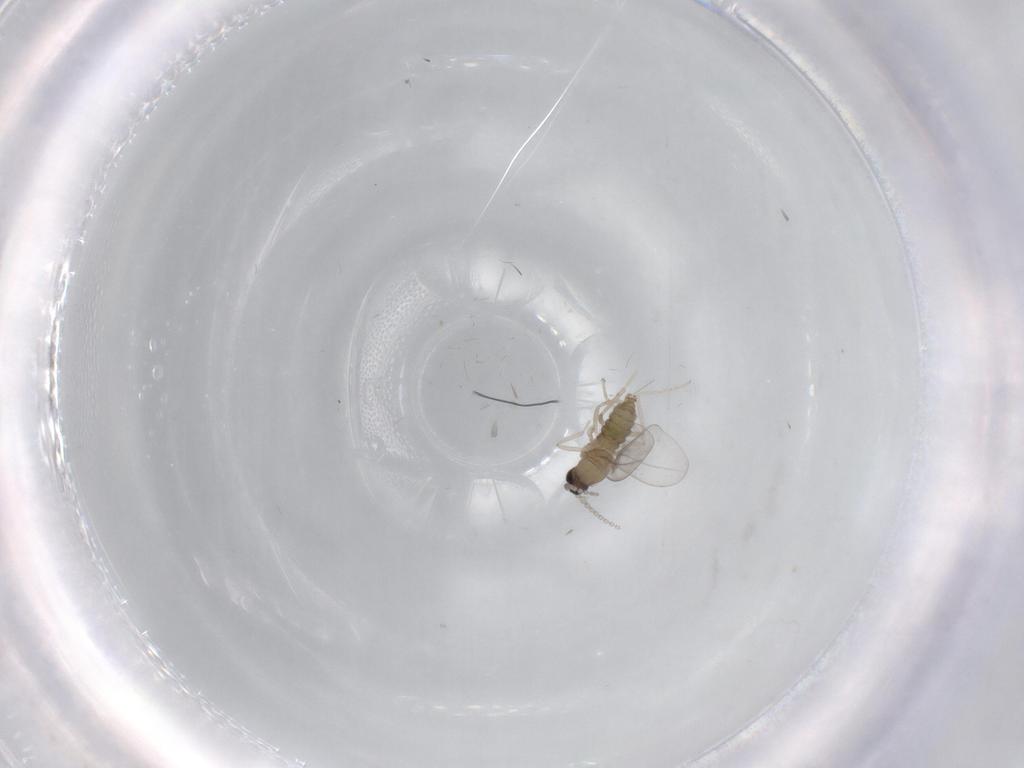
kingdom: Animalia
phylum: Arthropoda
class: Insecta
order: Diptera
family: Cecidomyiidae
